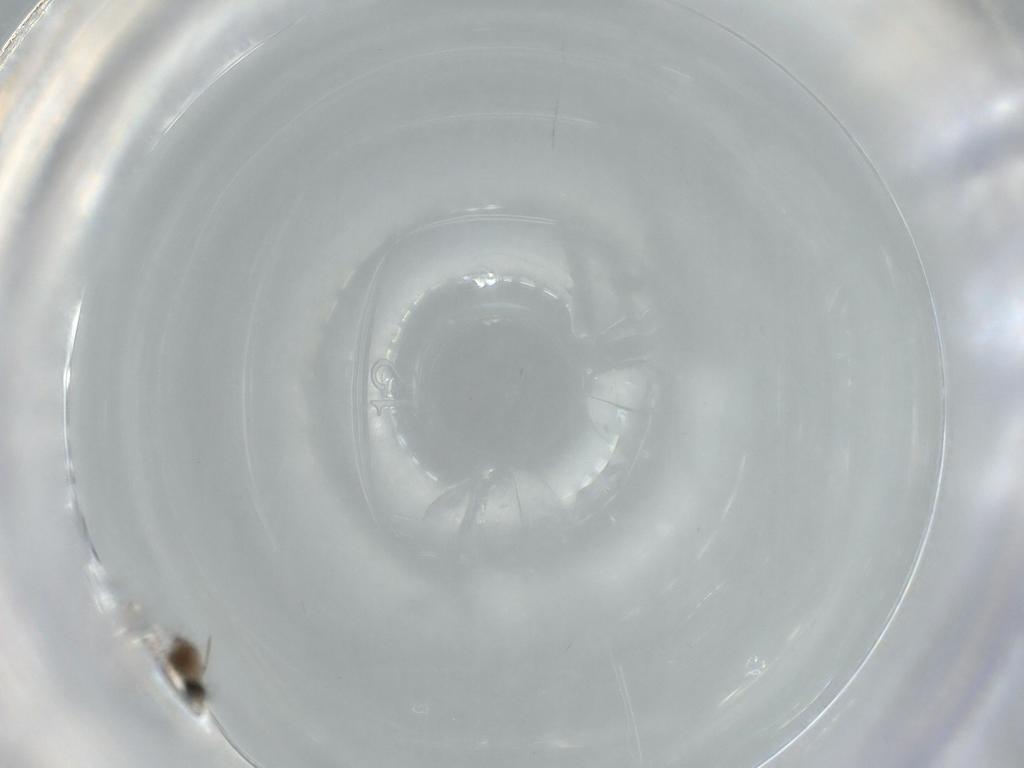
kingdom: Animalia
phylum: Arthropoda
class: Insecta
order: Diptera
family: Cecidomyiidae
